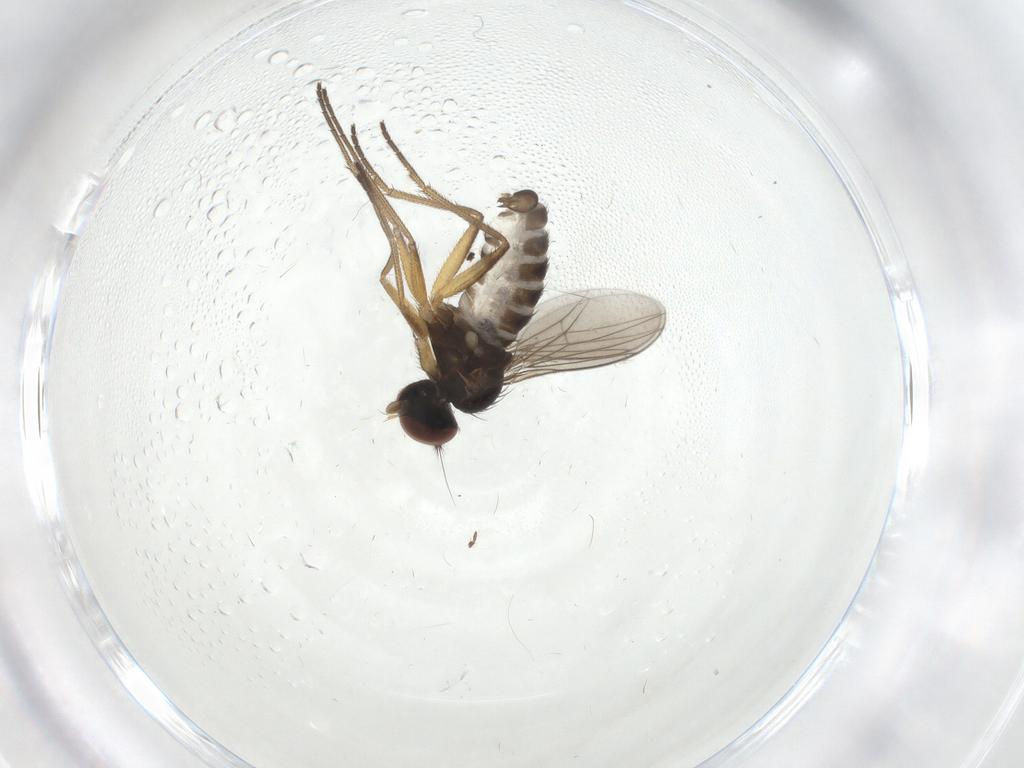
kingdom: Animalia
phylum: Arthropoda
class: Insecta
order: Diptera
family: Dolichopodidae
